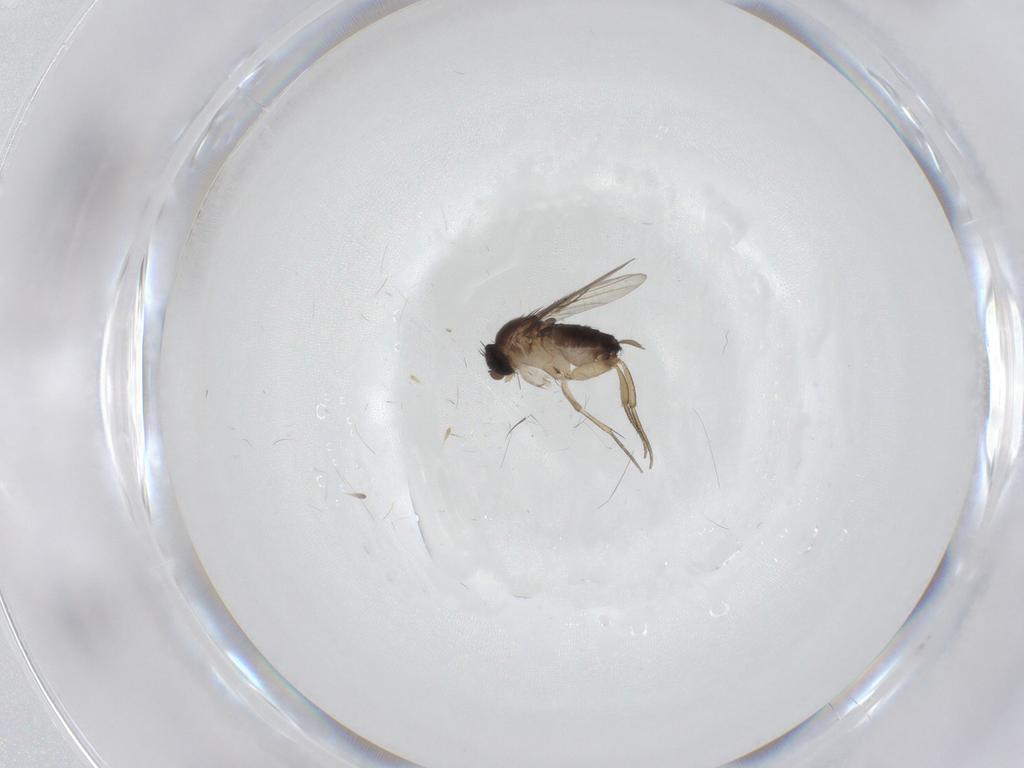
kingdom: Animalia
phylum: Arthropoda
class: Insecta
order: Diptera
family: Phoridae
